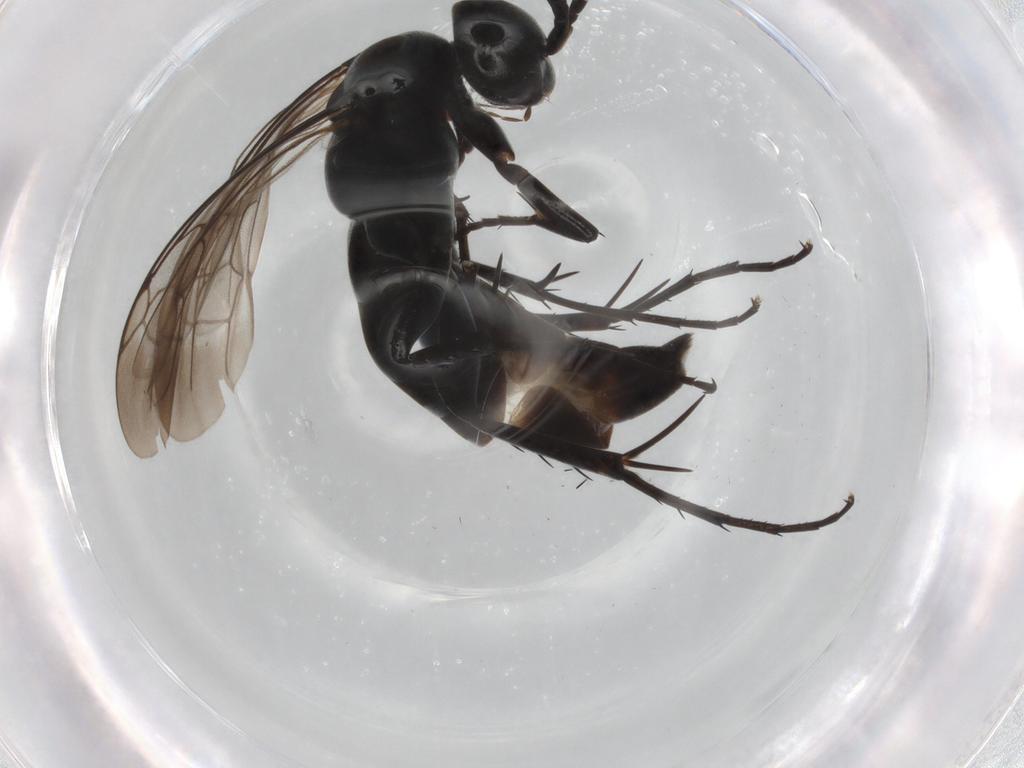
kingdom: Animalia
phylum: Arthropoda
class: Insecta
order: Hymenoptera
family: Pompilidae
